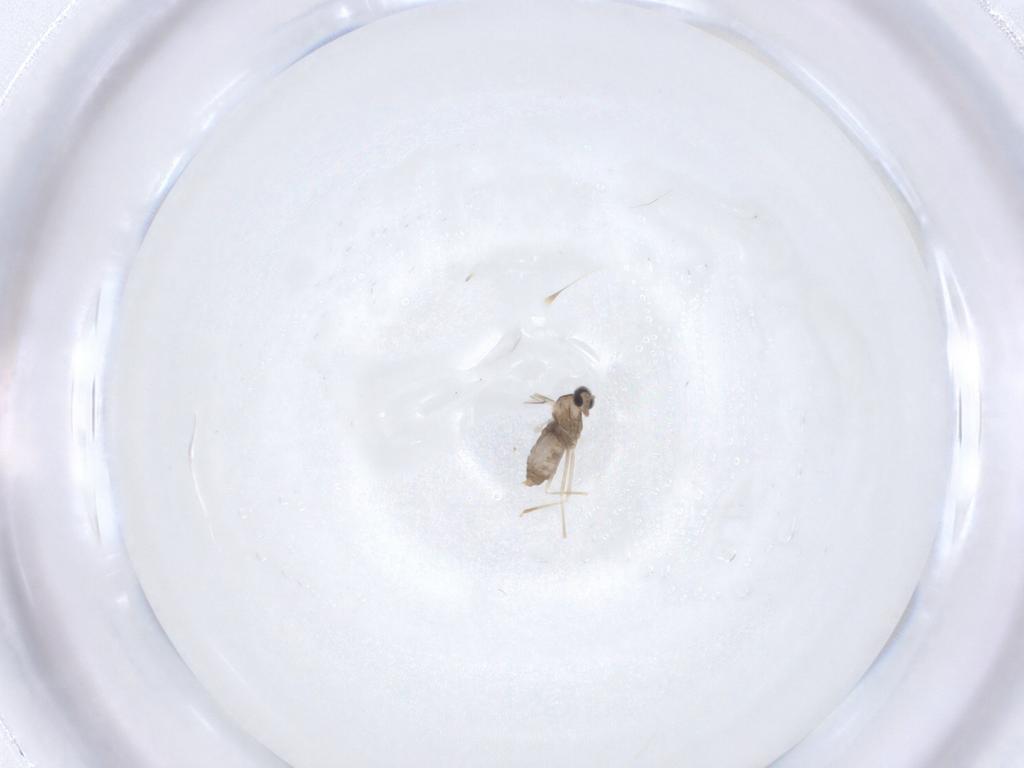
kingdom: Animalia
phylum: Arthropoda
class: Insecta
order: Diptera
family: Cecidomyiidae
